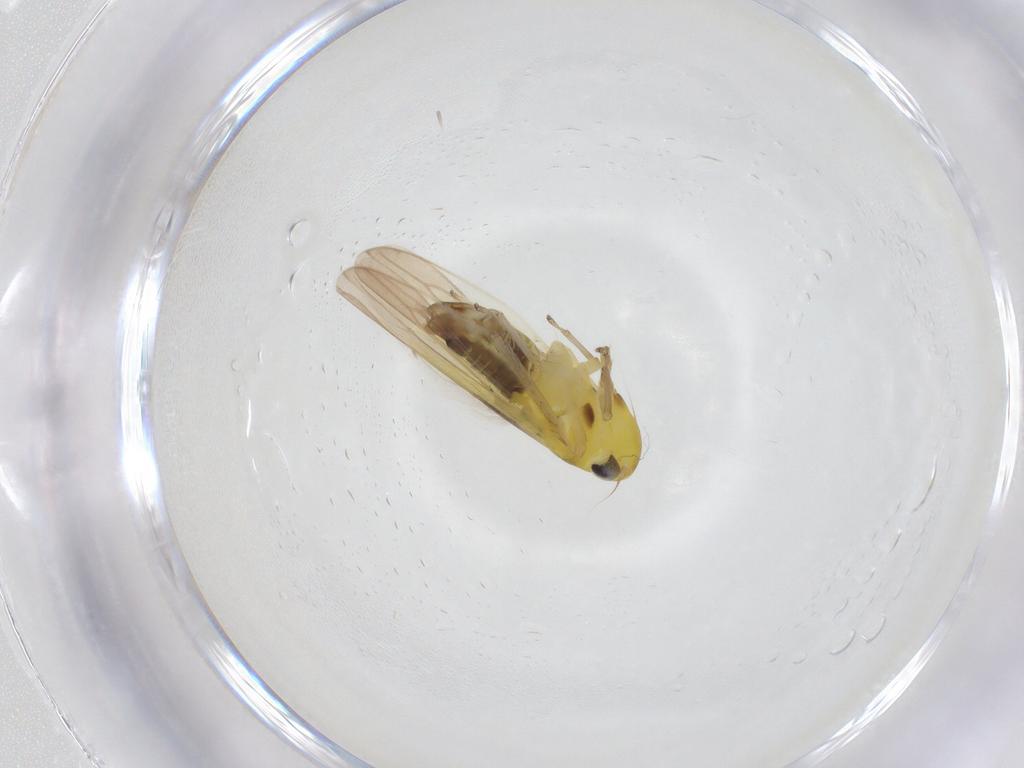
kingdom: Animalia
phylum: Arthropoda
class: Insecta
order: Hemiptera
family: Cicadellidae
